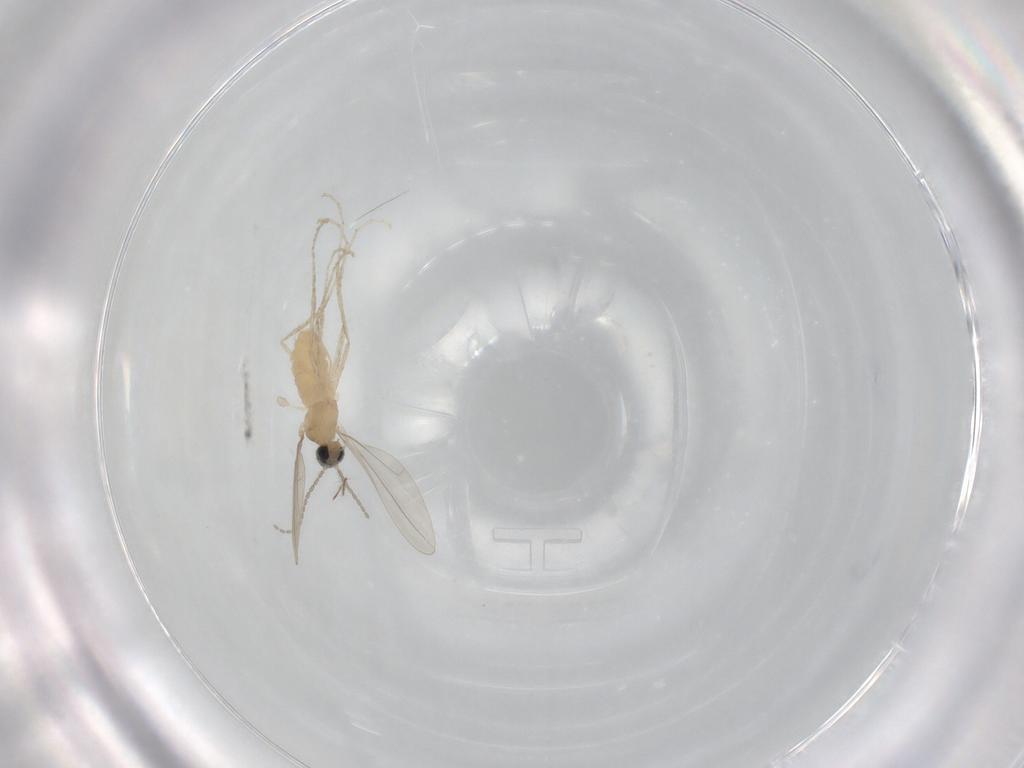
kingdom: Animalia
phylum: Arthropoda
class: Insecta
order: Diptera
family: Cecidomyiidae
